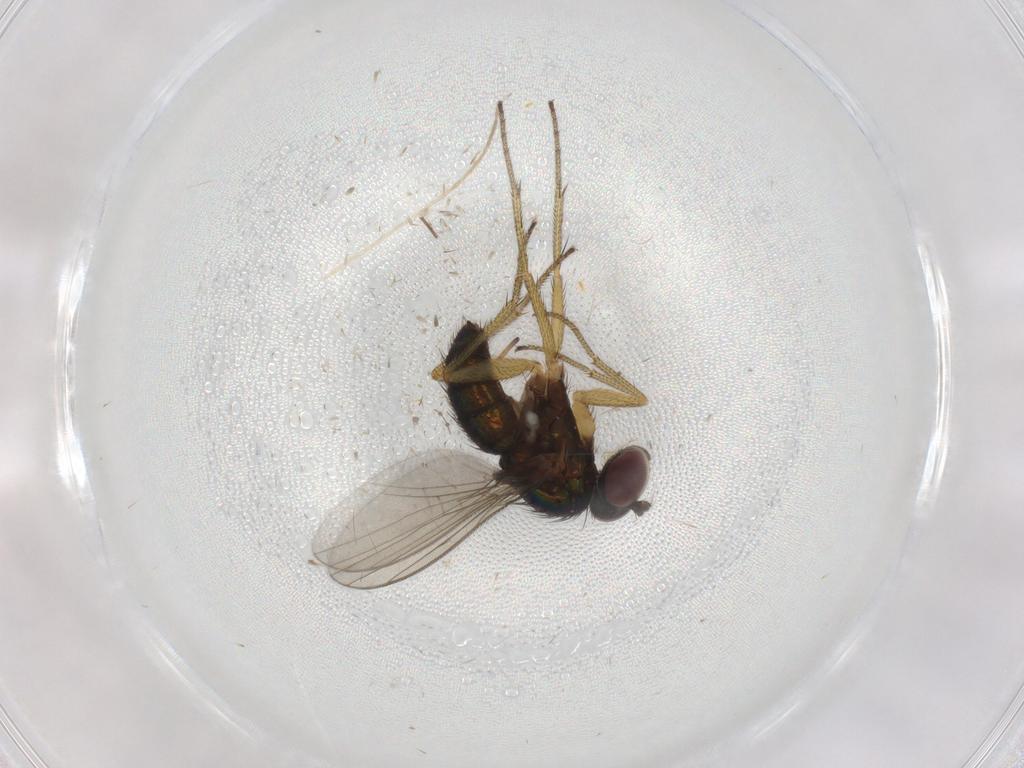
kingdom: Animalia
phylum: Arthropoda
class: Insecta
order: Diptera
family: Dolichopodidae
